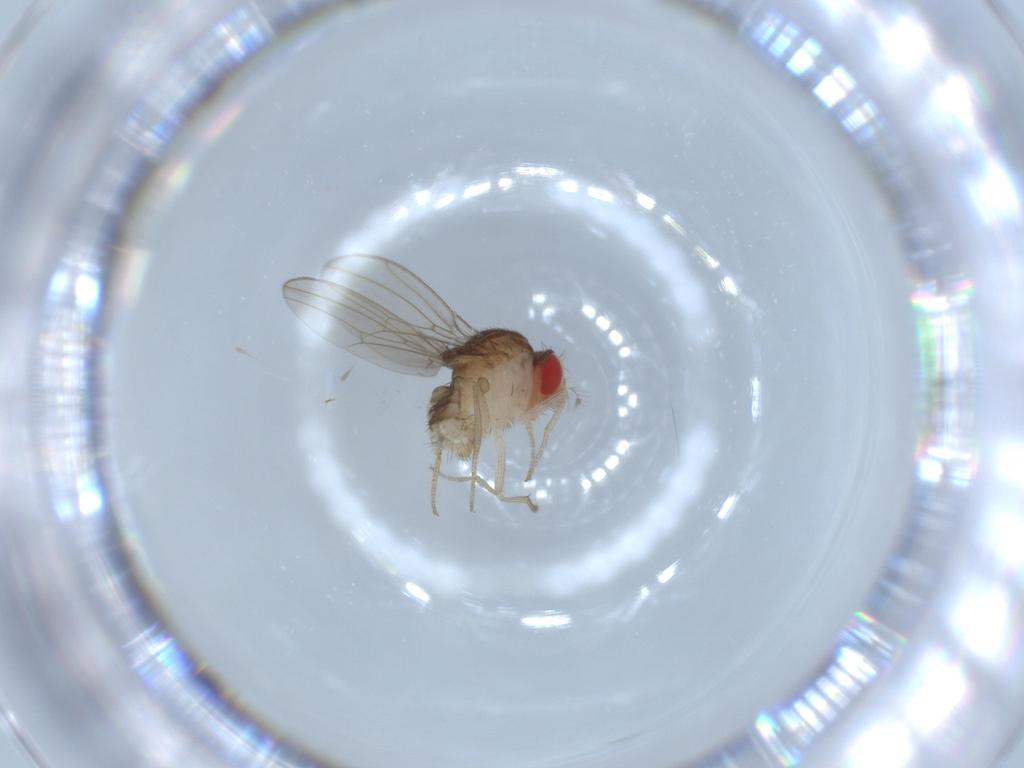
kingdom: Animalia
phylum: Arthropoda
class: Insecta
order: Diptera
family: Drosophilidae
